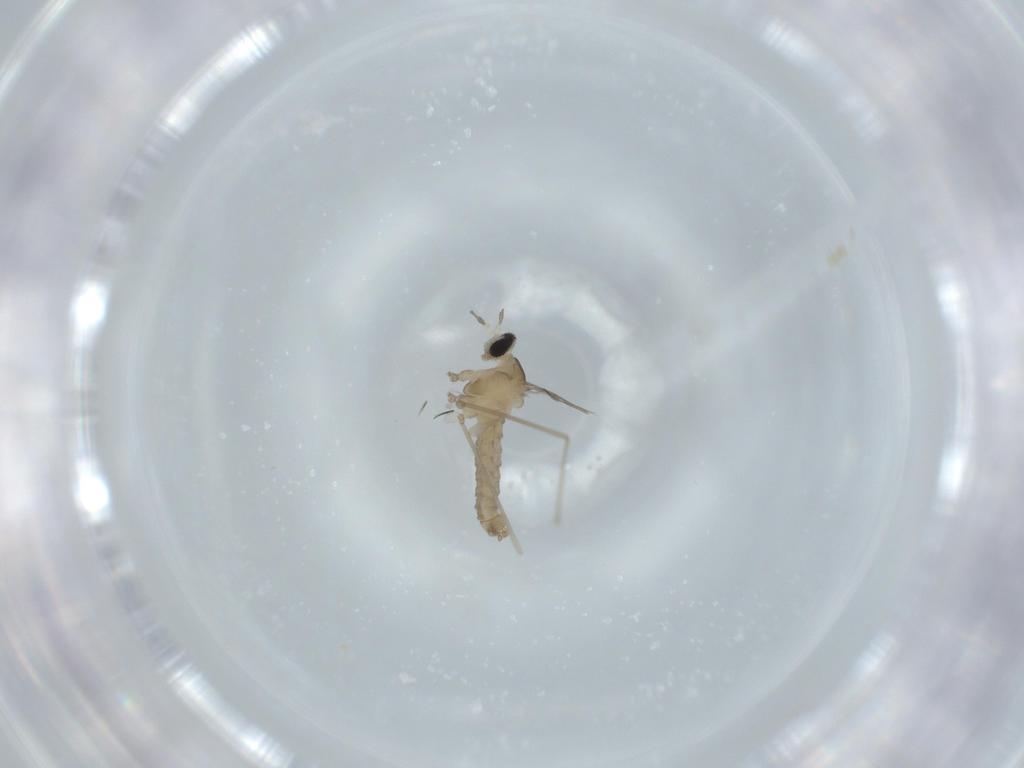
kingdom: Animalia
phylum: Arthropoda
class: Insecta
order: Diptera
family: Cecidomyiidae
